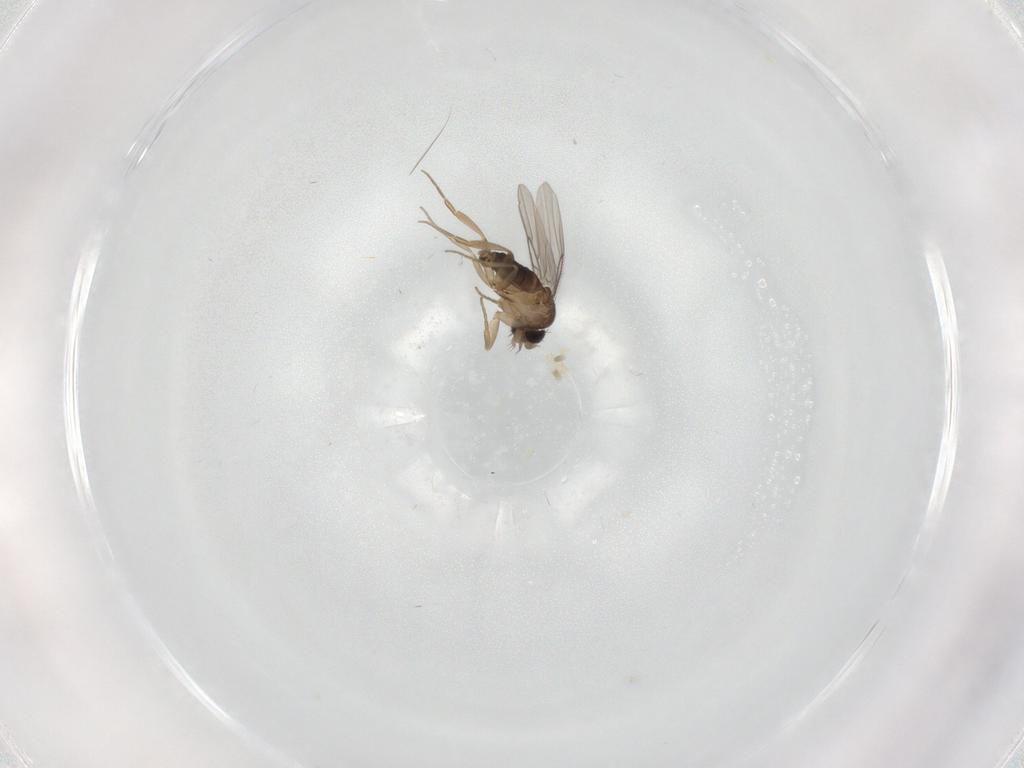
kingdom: Animalia
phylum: Arthropoda
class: Insecta
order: Diptera
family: Cecidomyiidae
